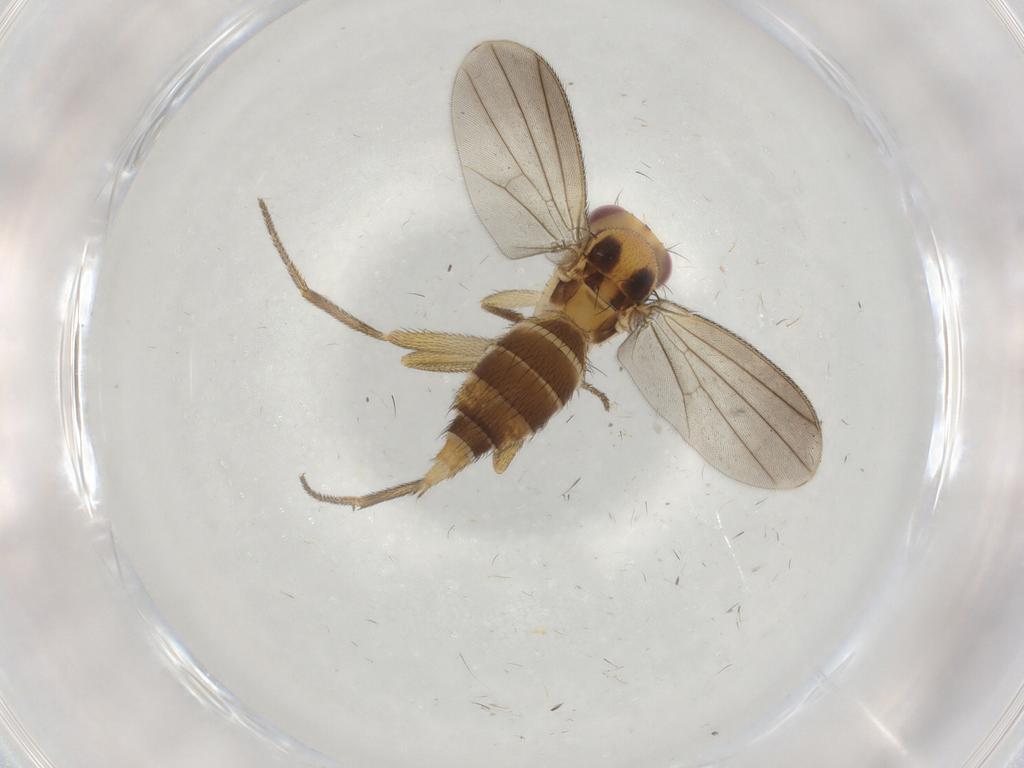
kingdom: Animalia
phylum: Arthropoda
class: Insecta
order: Diptera
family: Clusiidae
